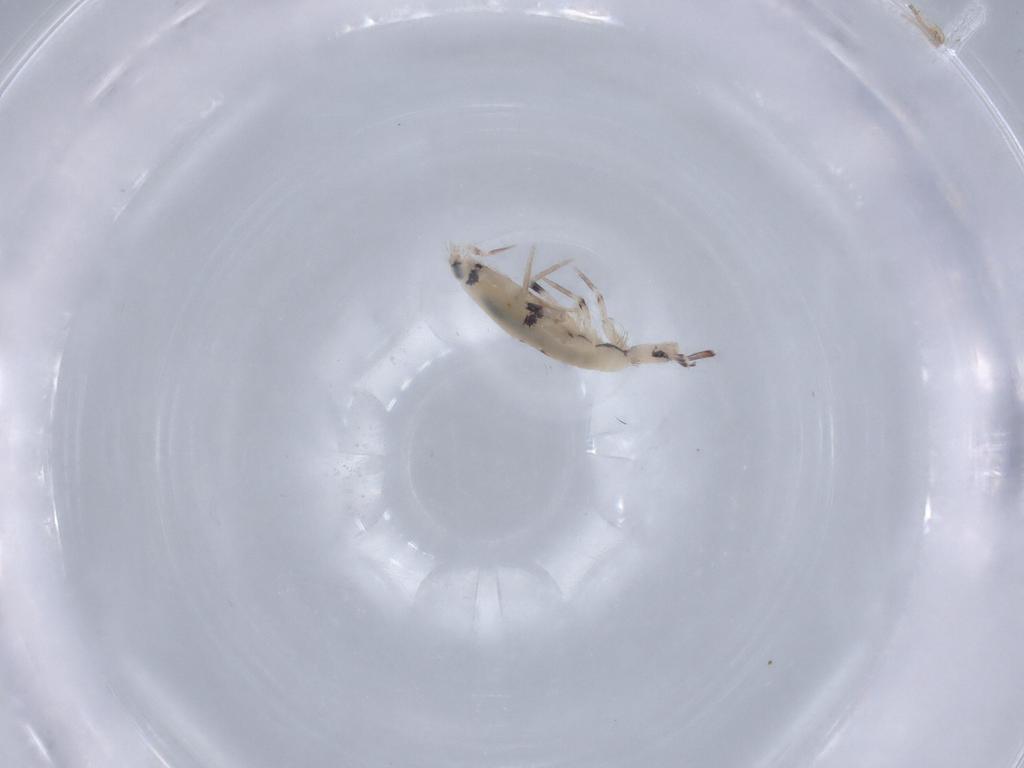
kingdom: Animalia
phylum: Arthropoda
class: Collembola
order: Poduromorpha
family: Hypogastruridae
